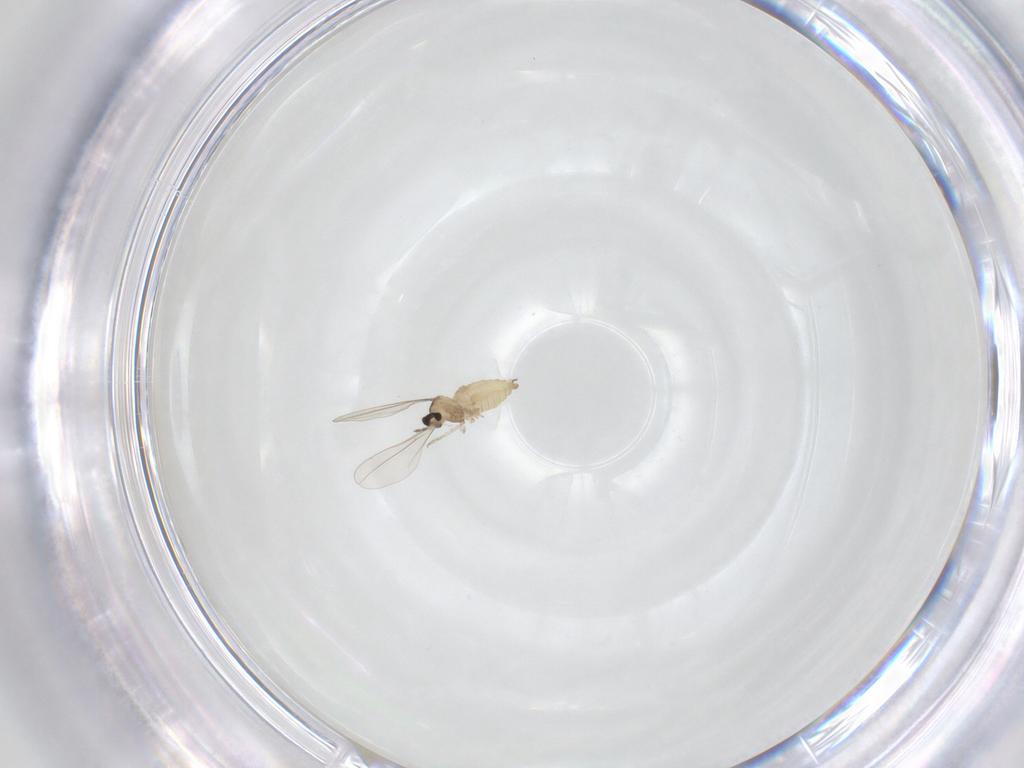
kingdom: Animalia
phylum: Arthropoda
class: Insecta
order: Diptera
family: Cecidomyiidae
